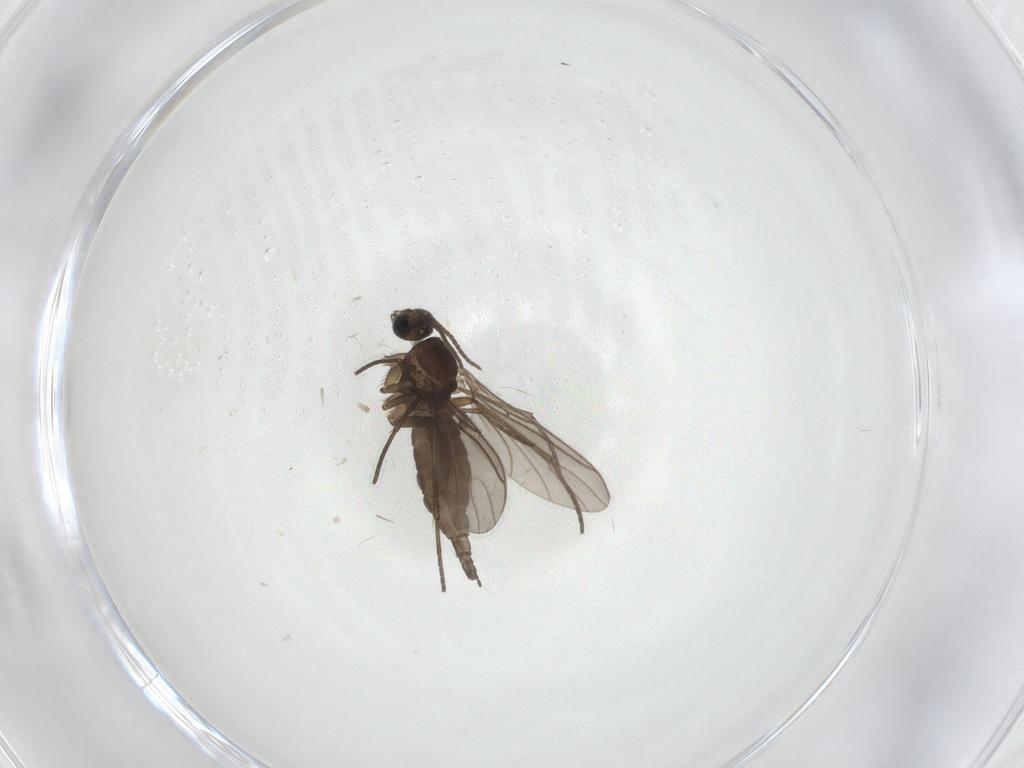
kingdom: Animalia
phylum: Arthropoda
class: Insecta
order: Diptera
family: Sciaridae
